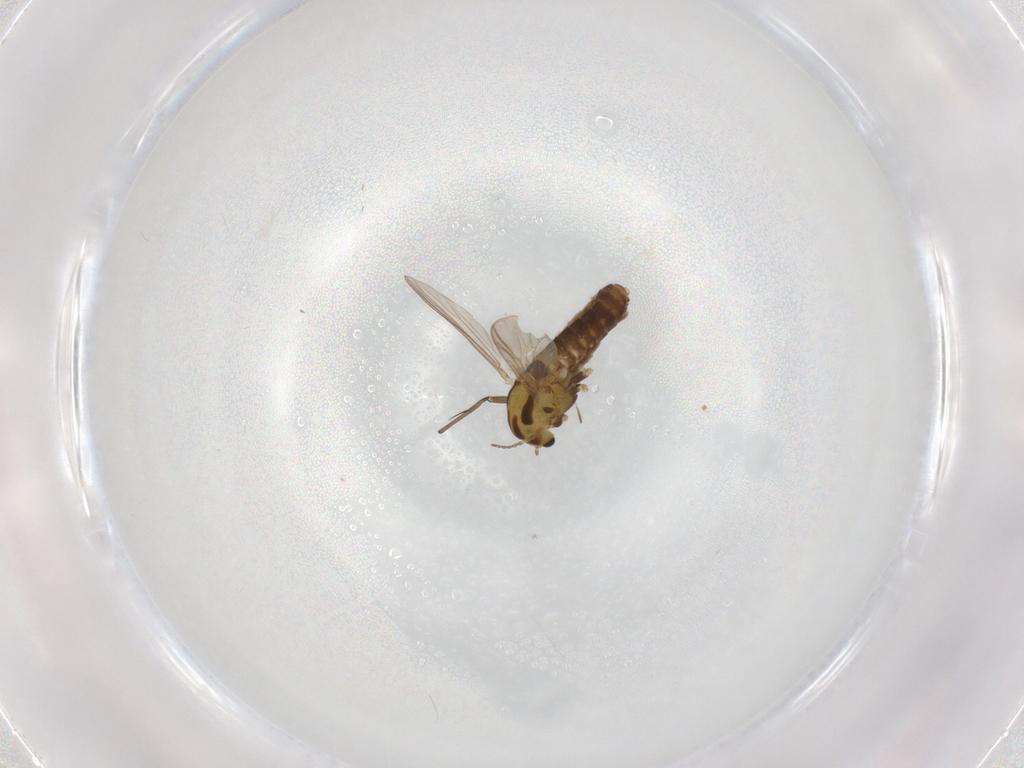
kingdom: Animalia
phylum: Arthropoda
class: Insecta
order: Diptera
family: Chironomidae
